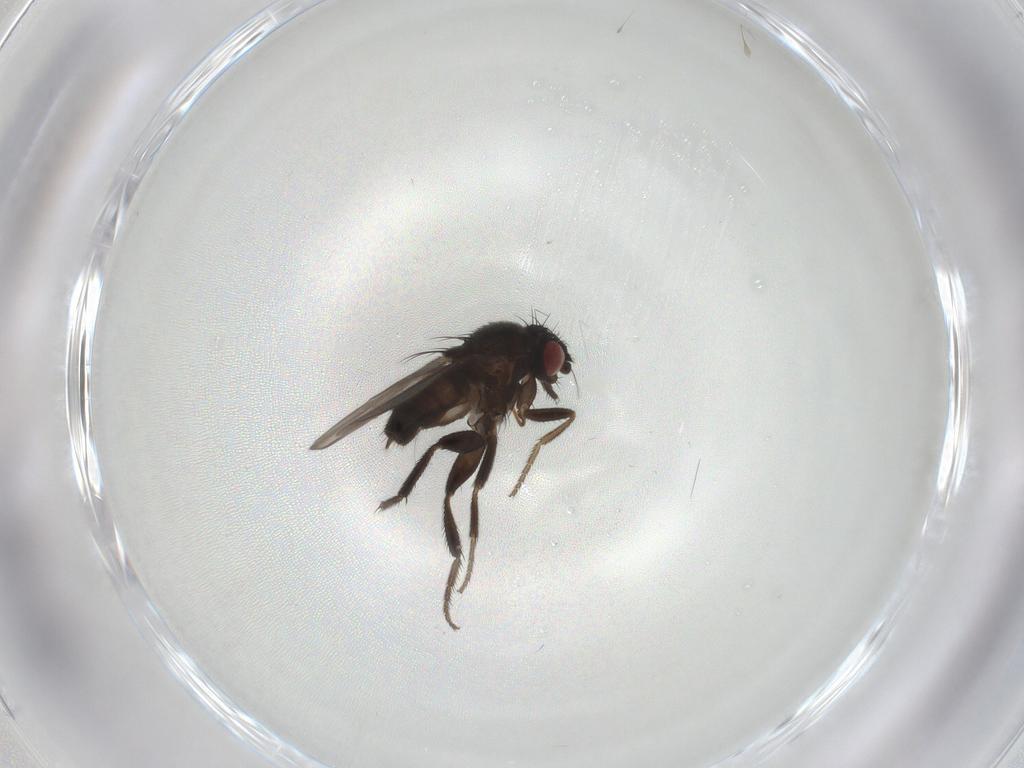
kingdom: Animalia
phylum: Arthropoda
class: Insecta
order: Diptera
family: Milichiidae
